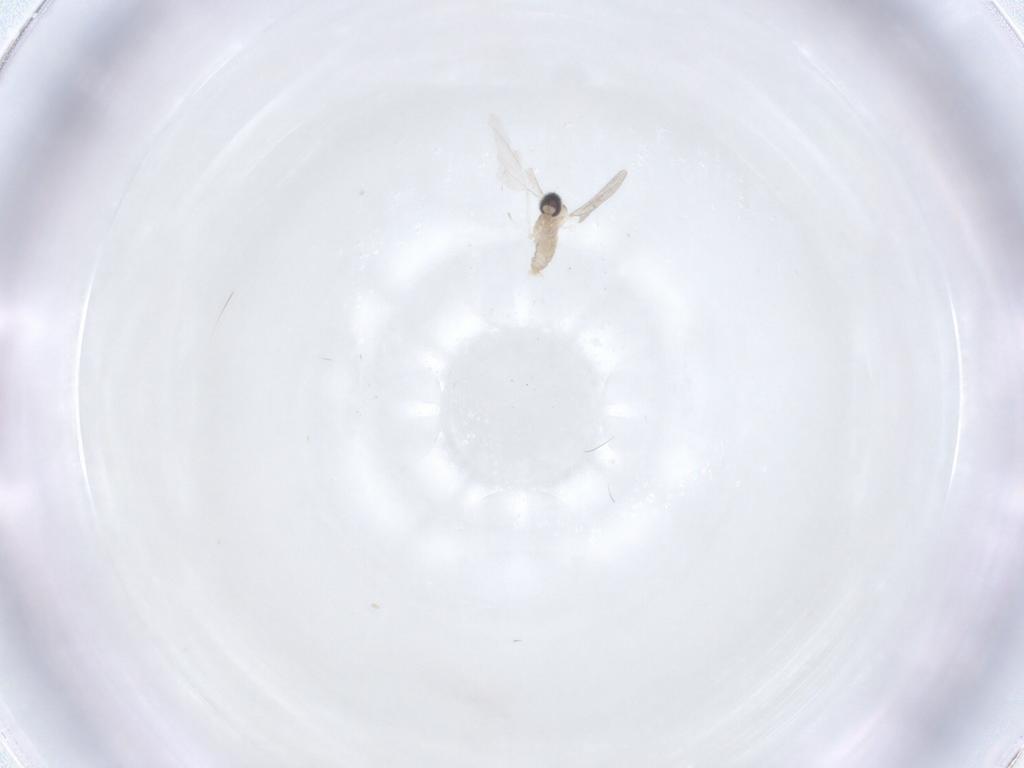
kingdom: Animalia
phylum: Arthropoda
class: Insecta
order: Diptera
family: Cecidomyiidae
